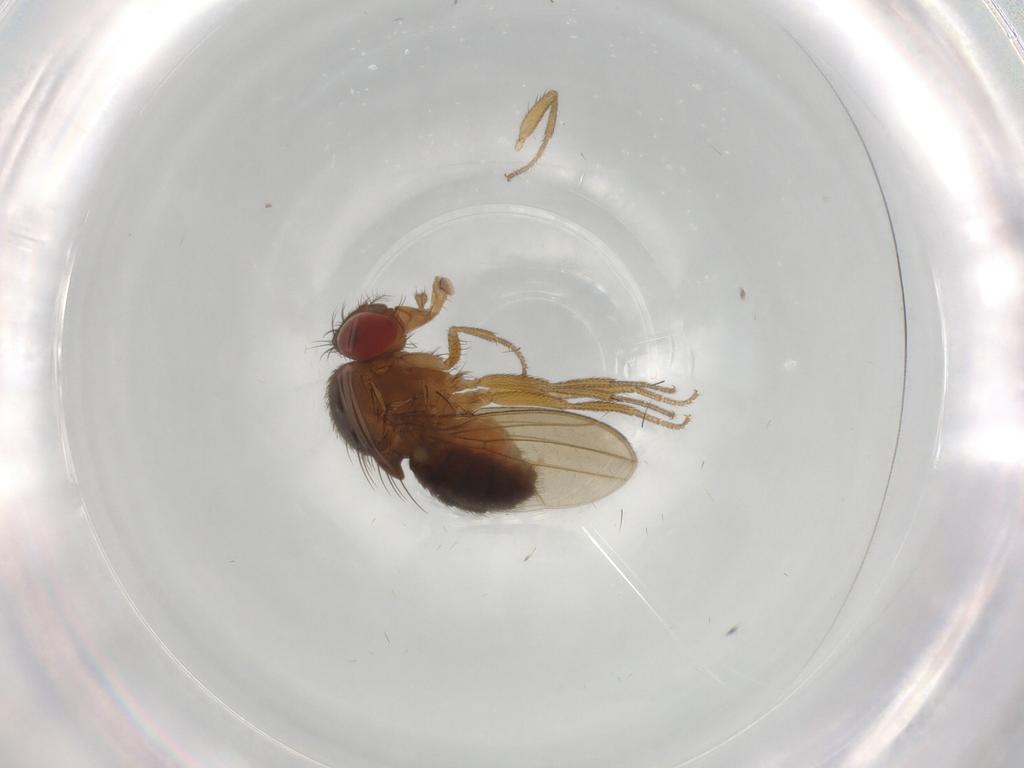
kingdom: Animalia
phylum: Arthropoda
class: Insecta
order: Diptera
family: Drosophilidae
